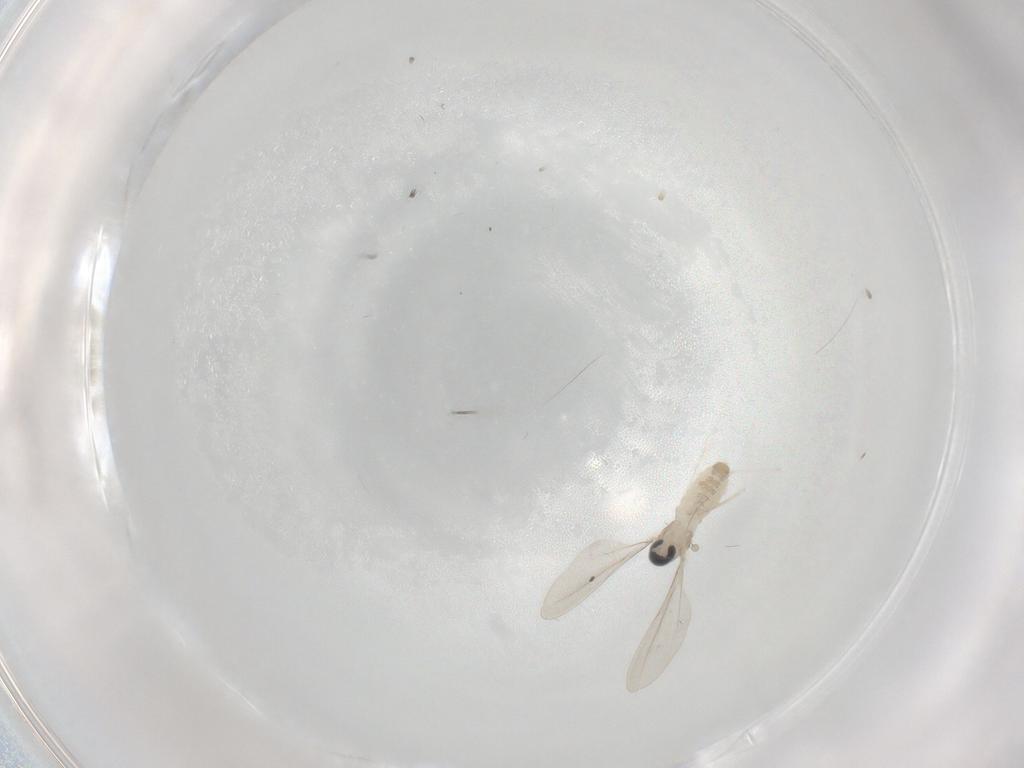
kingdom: Animalia
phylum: Arthropoda
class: Insecta
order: Diptera
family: Cecidomyiidae
